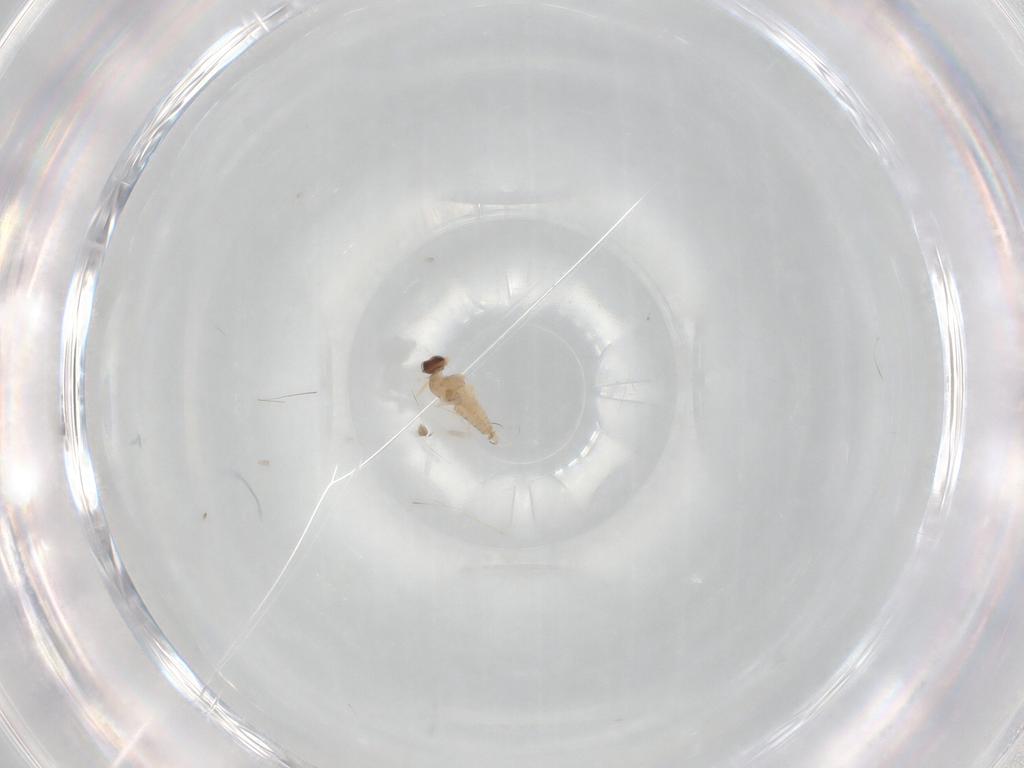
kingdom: Animalia
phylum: Arthropoda
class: Insecta
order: Diptera
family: Cecidomyiidae
